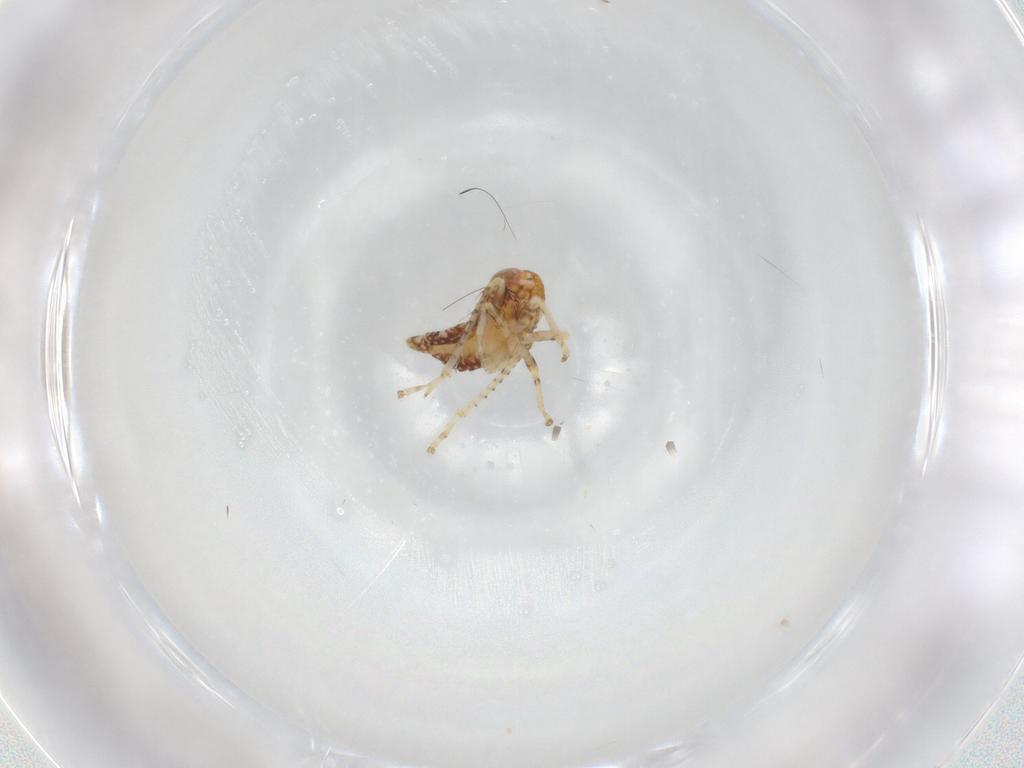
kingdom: Animalia
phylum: Arthropoda
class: Insecta
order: Hemiptera
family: Cicadellidae
